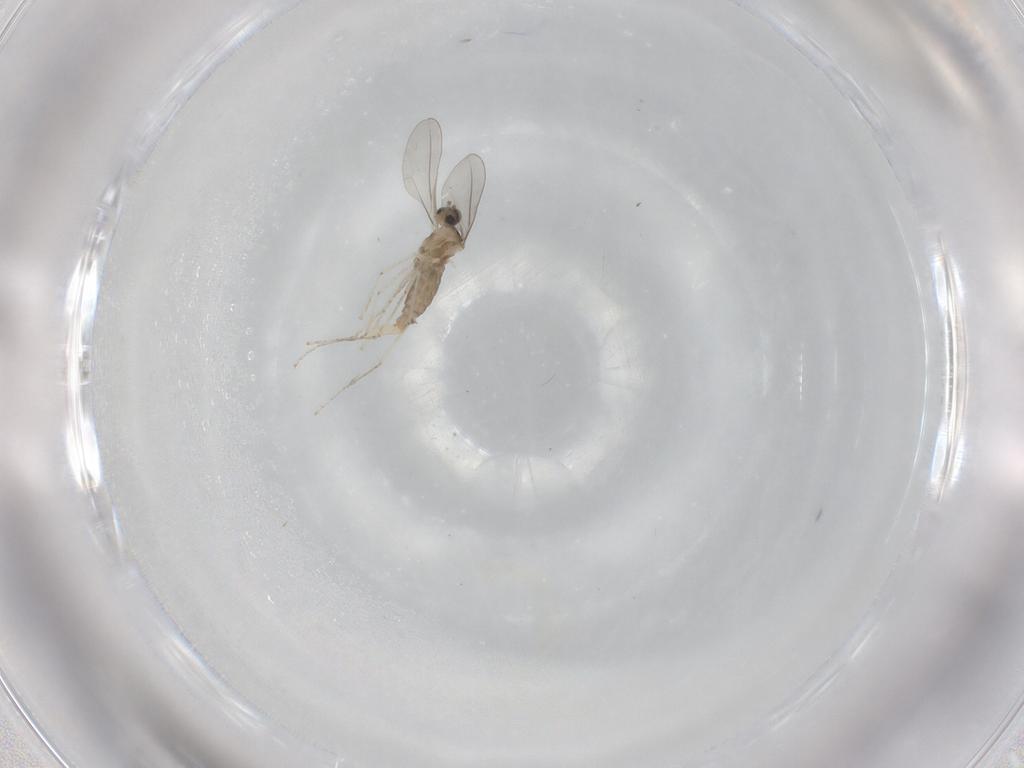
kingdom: Animalia
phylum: Arthropoda
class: Insecta
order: Diptera
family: Cecidomyiidae
